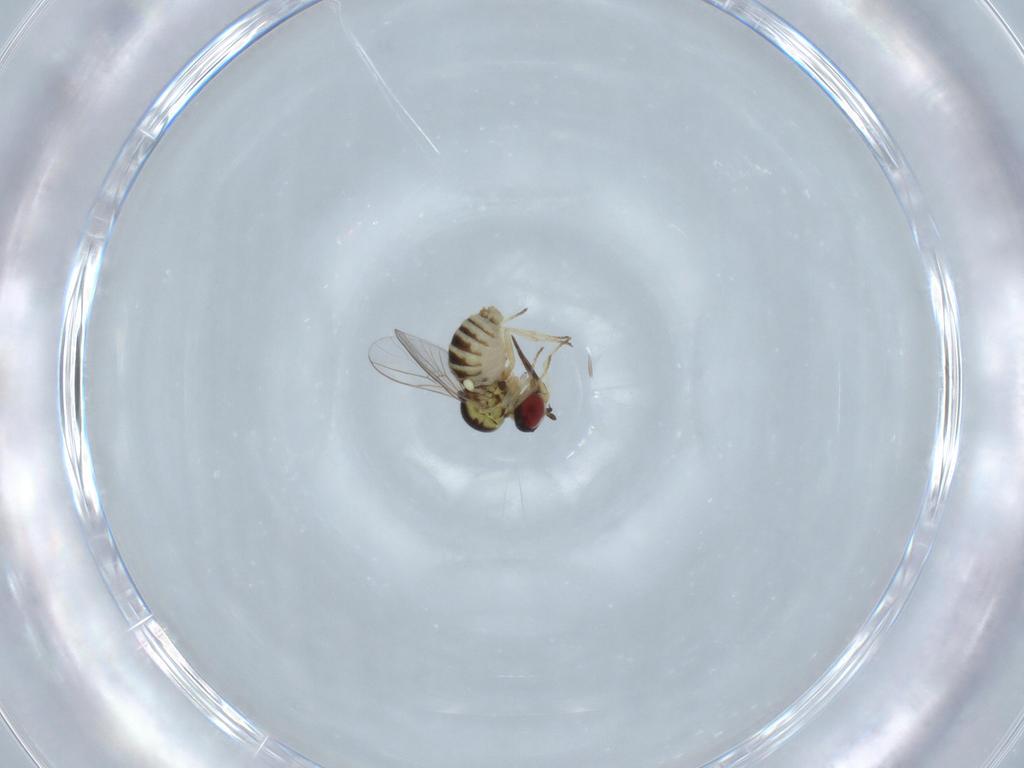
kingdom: Animalia
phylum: Arthropoda
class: Insecta
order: Diptera
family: Bombyliidae
